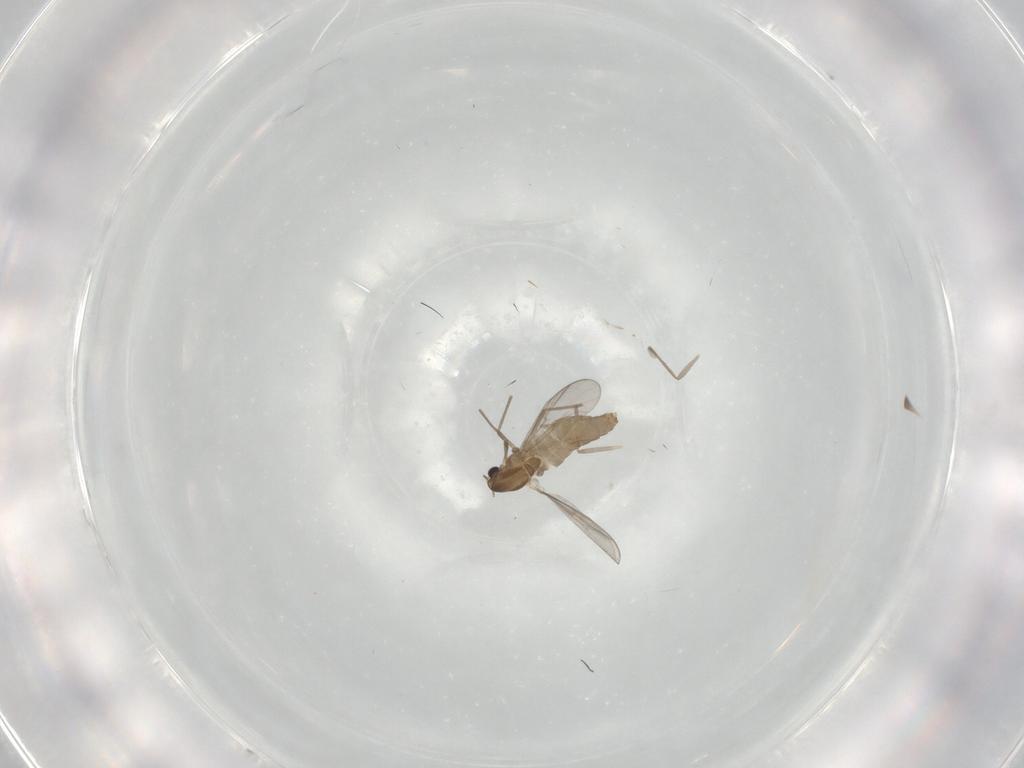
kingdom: Animalia
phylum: Arthropoda
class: Insecta
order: Diptera
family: Chironomidae
